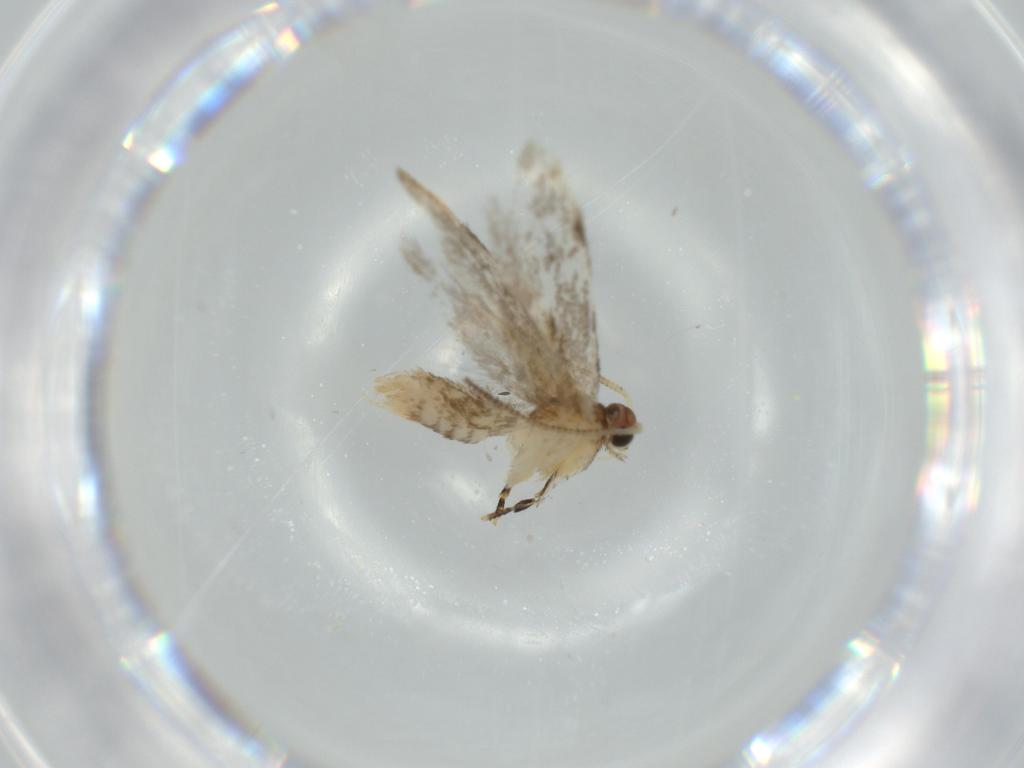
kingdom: Animalia
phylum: Arthropoda
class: Insecta
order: Lepidoptera
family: Tineidae
